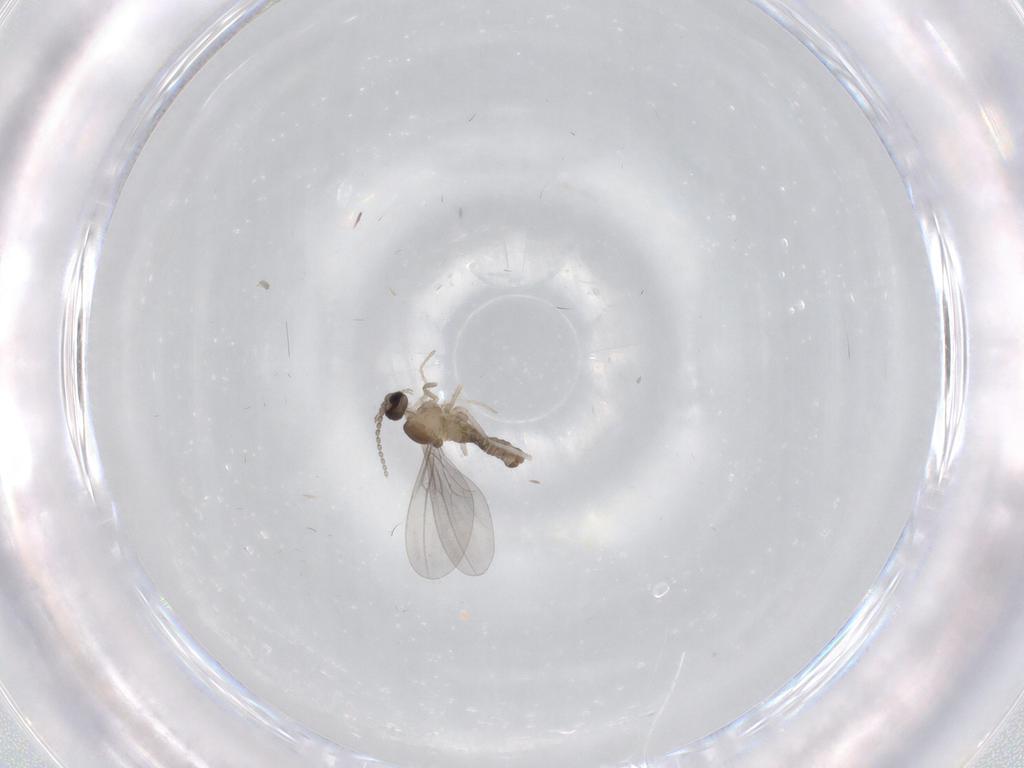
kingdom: Animalia
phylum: Arthropoda
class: Insecta
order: Diptera
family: Cecidomyiidae
